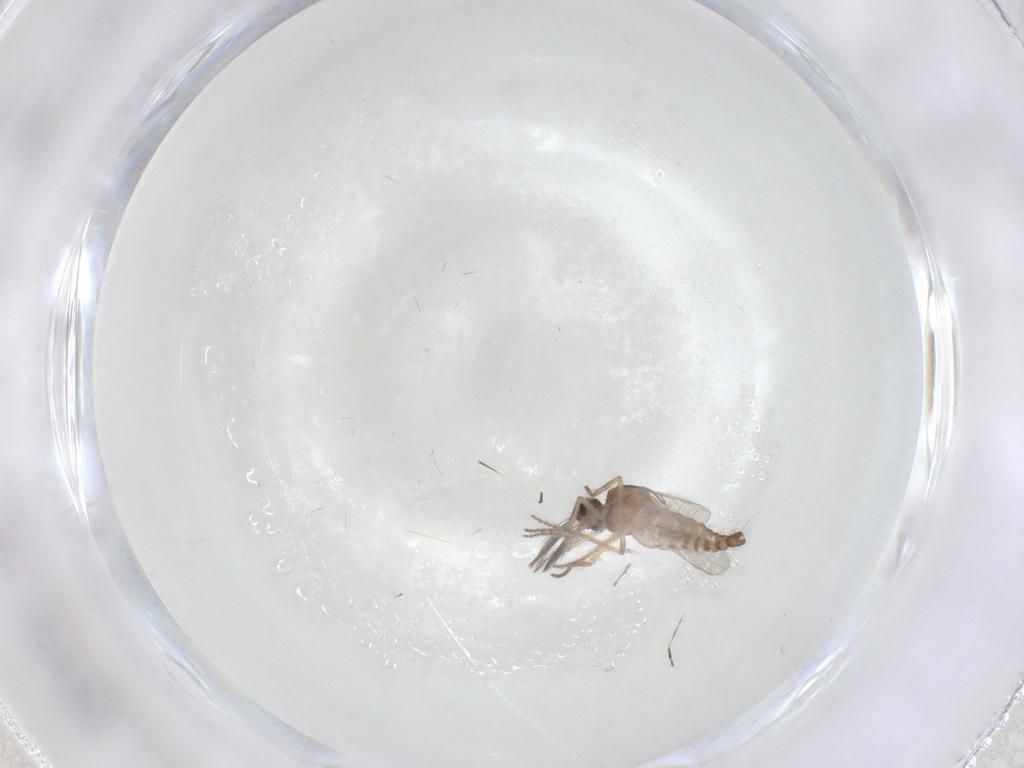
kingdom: Animalia
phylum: Arthropoda
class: Insecta
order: Diptera
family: Ceratopogonidae
